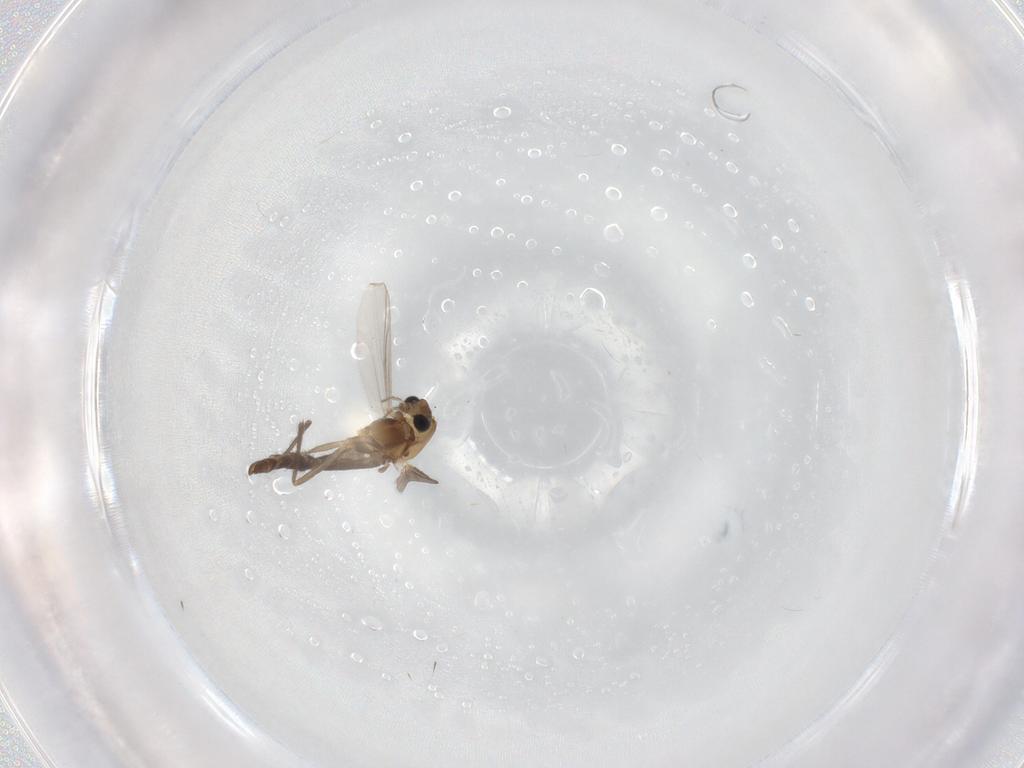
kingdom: Animalia
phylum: Arthropoda
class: Insecta
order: Diptera
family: Chironomidae
